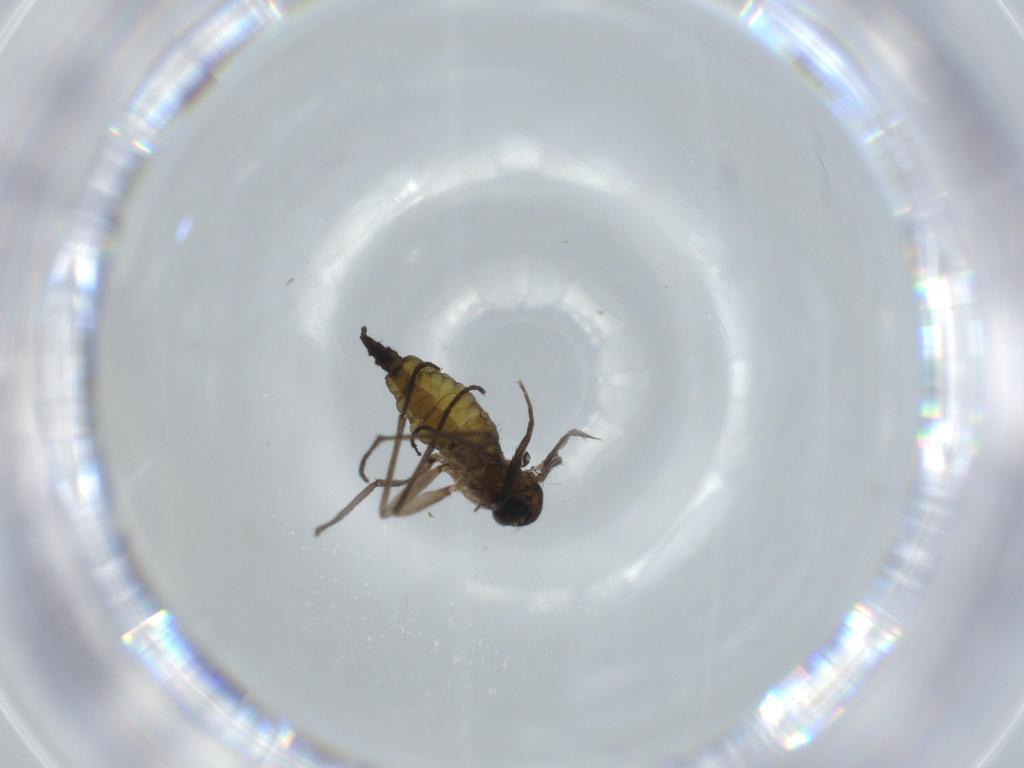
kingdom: Animalia
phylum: Arthropoda
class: Insecta
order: Diptera
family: Sciaridae
